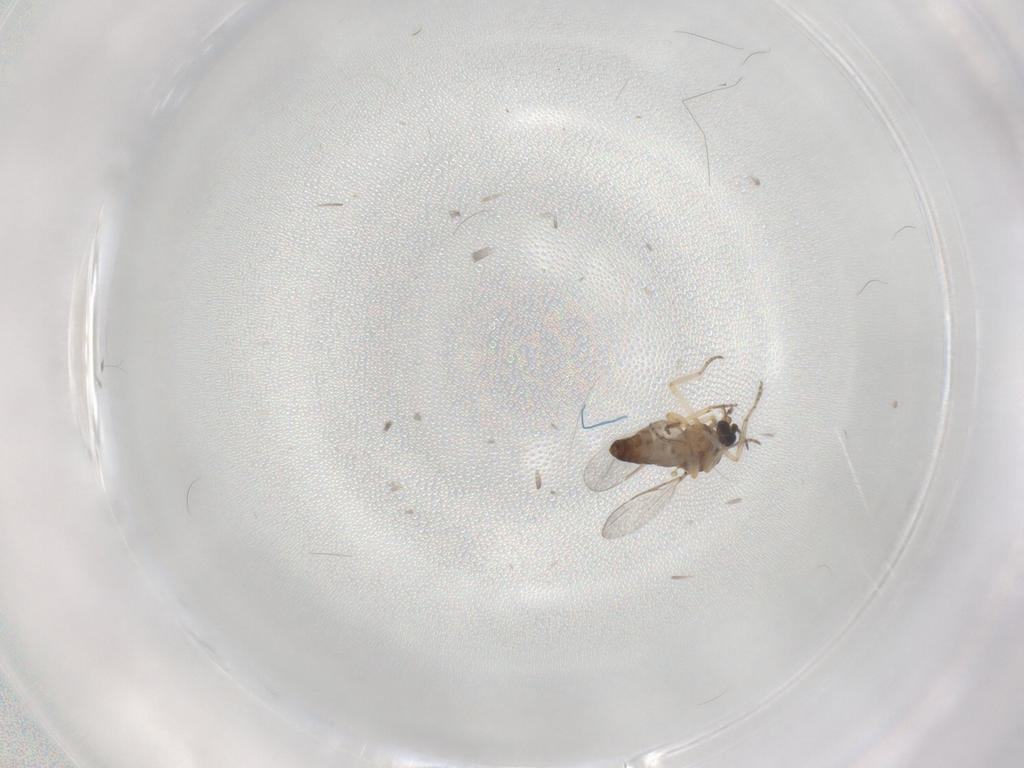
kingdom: Animalia
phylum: Arthropoda
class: Insecta
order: Diptera
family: Ceratopogonidae
